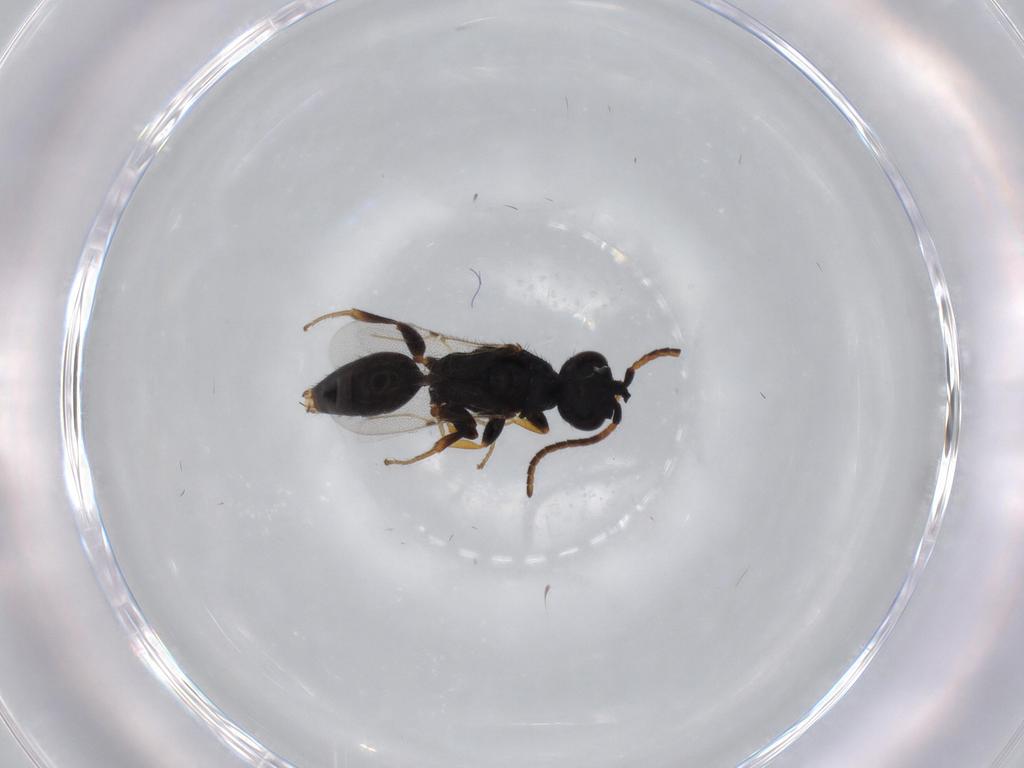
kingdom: Animalia
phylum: Arthropoda
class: Insecta
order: Hymenoptera
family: Bethylidae
